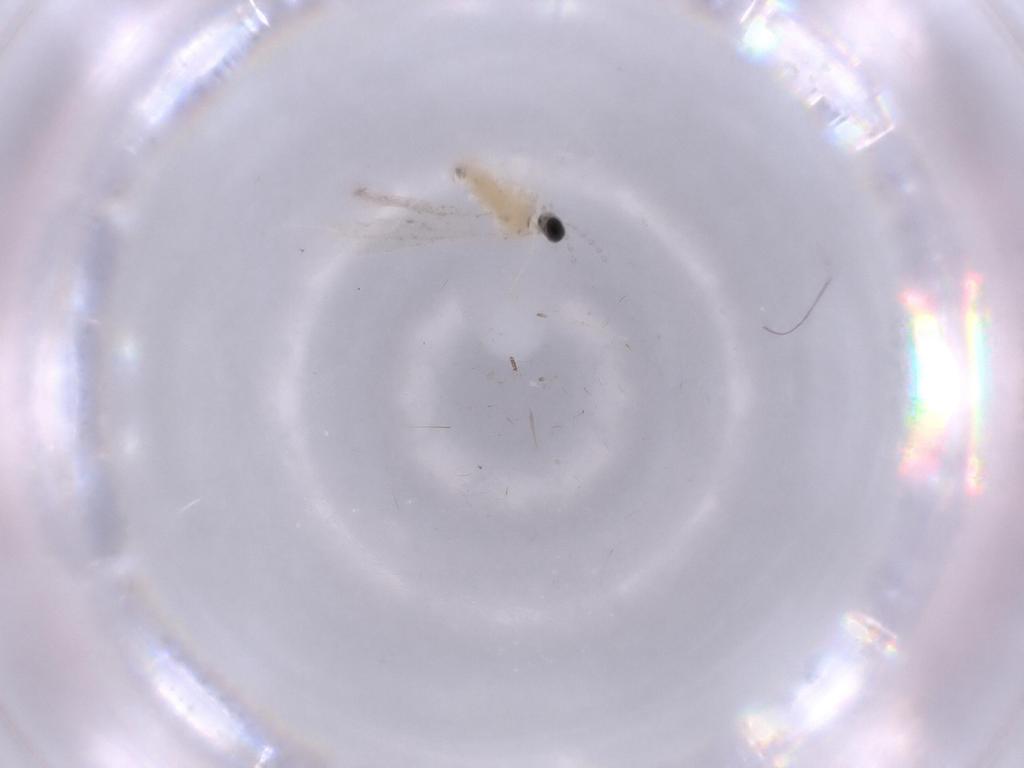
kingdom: Animalia
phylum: Arthropoda
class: Insecta
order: Diptera
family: Cecidomyiidae
